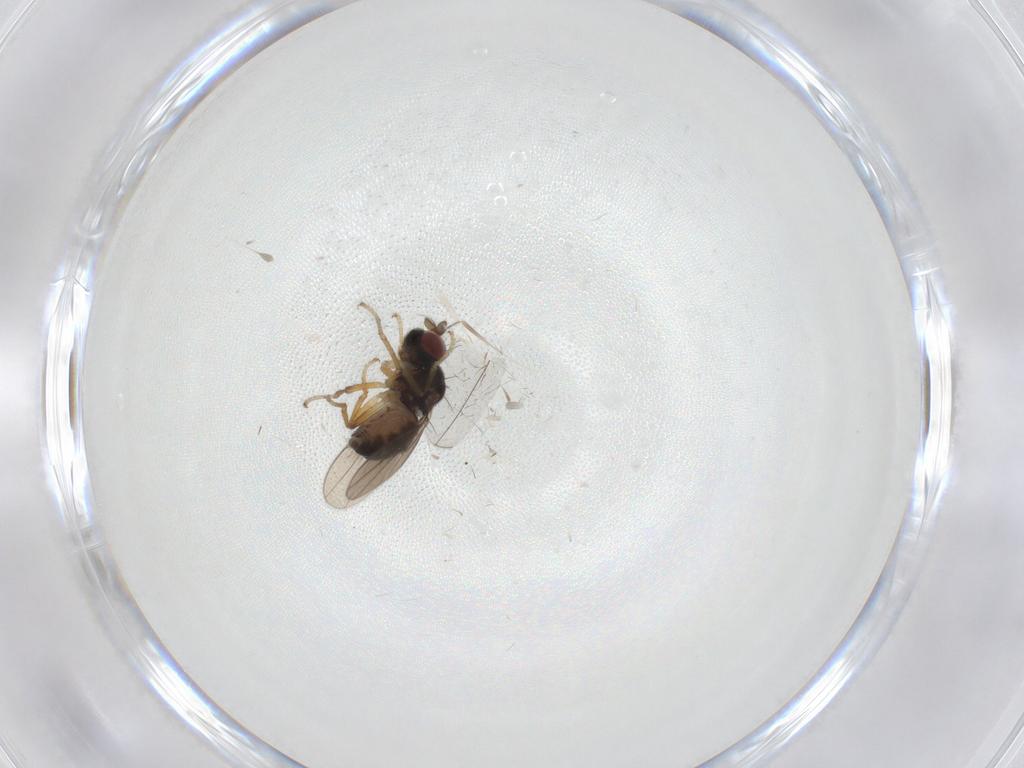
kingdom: Animalia
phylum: Arthropoda
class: Insecta
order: Diptera
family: Ephydridae
